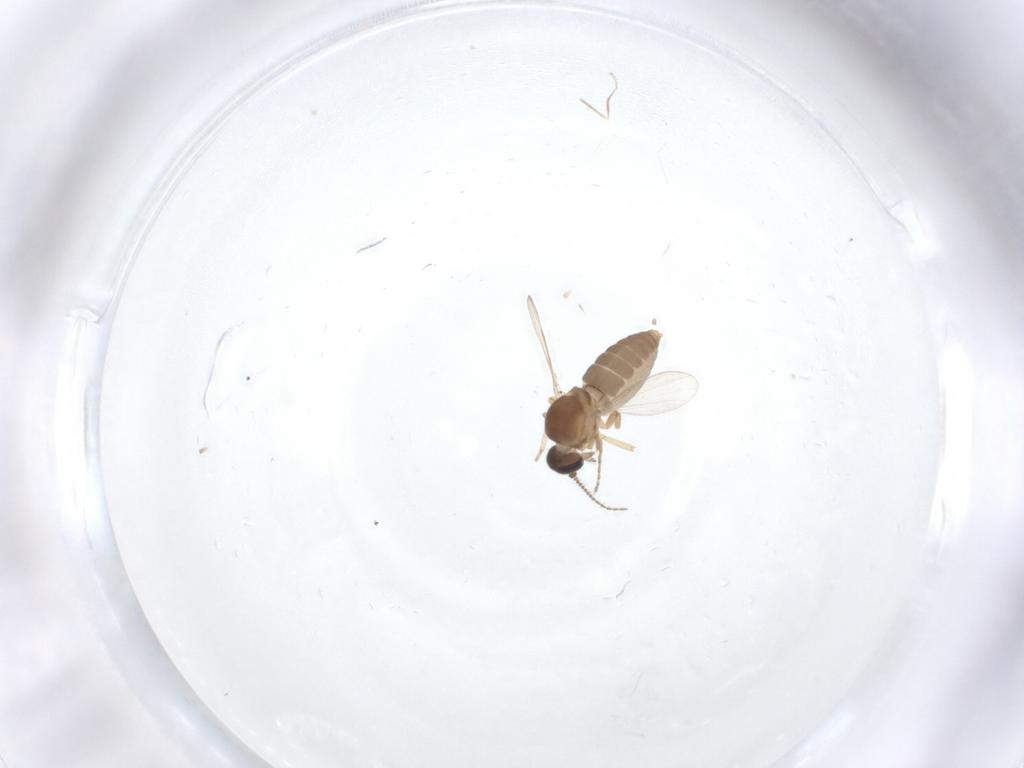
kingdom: Animalia
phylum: Arthropoda
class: Insecta
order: Diptera
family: Ceratopogonidae
